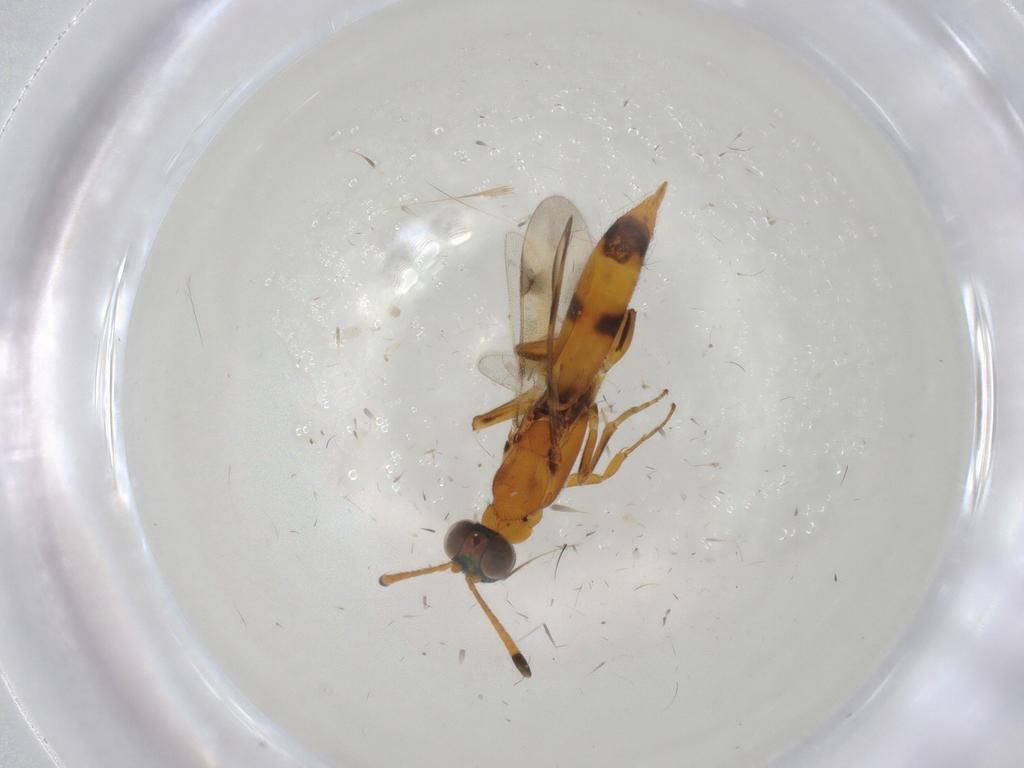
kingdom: Animalia
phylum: Arthropoda
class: Insecta
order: Hymenoptera
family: Eupelmidae
